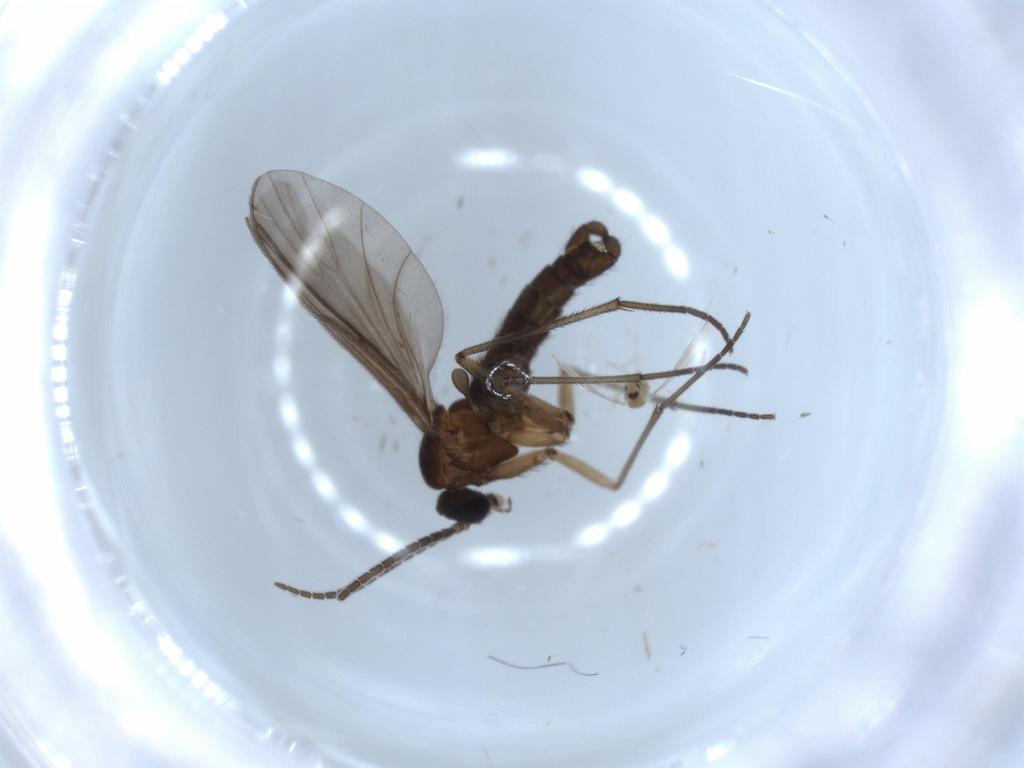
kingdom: Animalia
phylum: Arthropoda
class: Insecta
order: Diptera
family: Sciaridae
